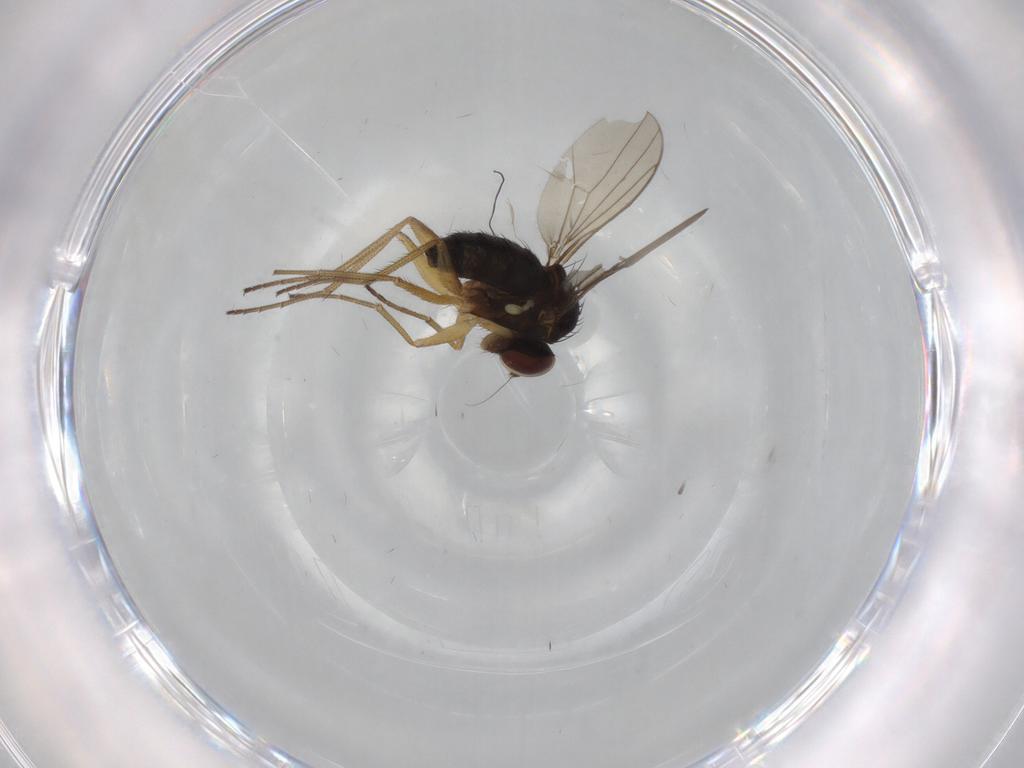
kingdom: Animalia
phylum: Arthropoda
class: Insecta
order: Diptera
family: Dolichopodidae
